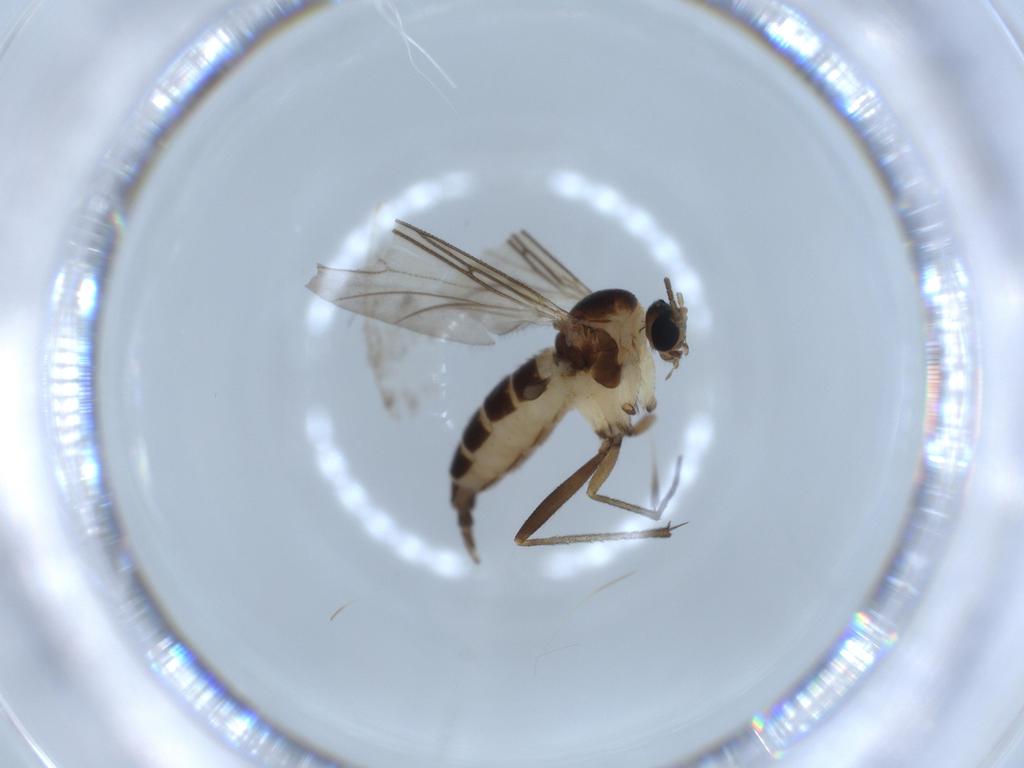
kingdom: Animalia
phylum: Arthropoda
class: Insecta
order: Diptera
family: Sciaridae
